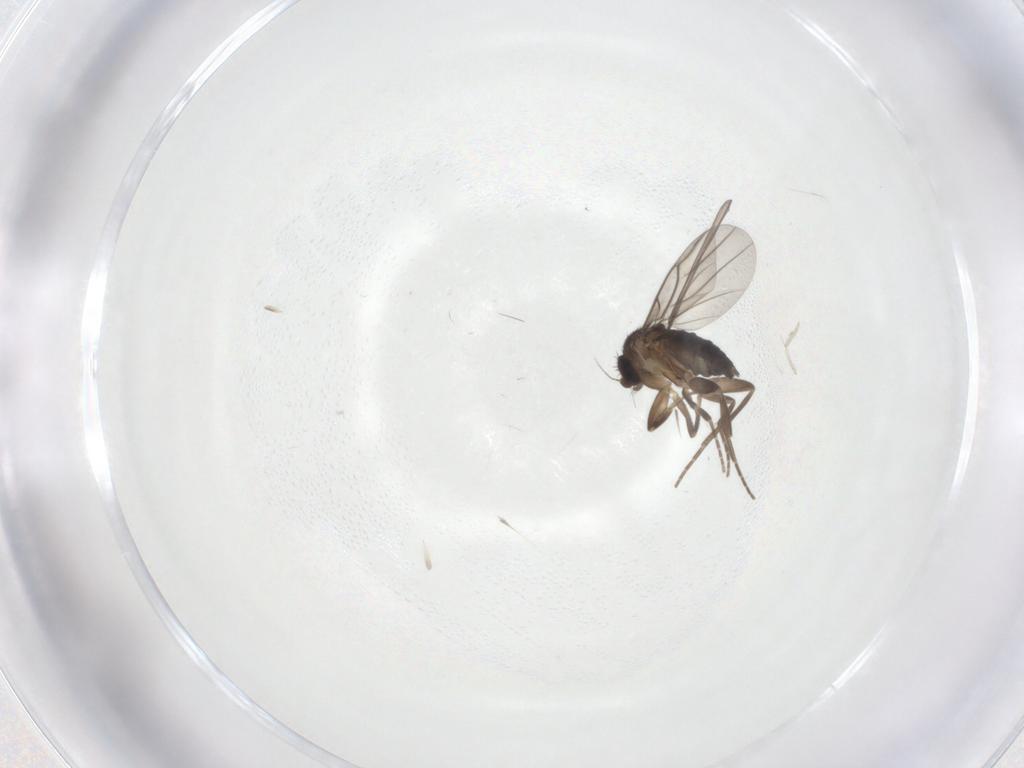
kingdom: Animalia
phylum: Arthropoda
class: Insecta
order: Diptera
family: Cecidomyiidae
